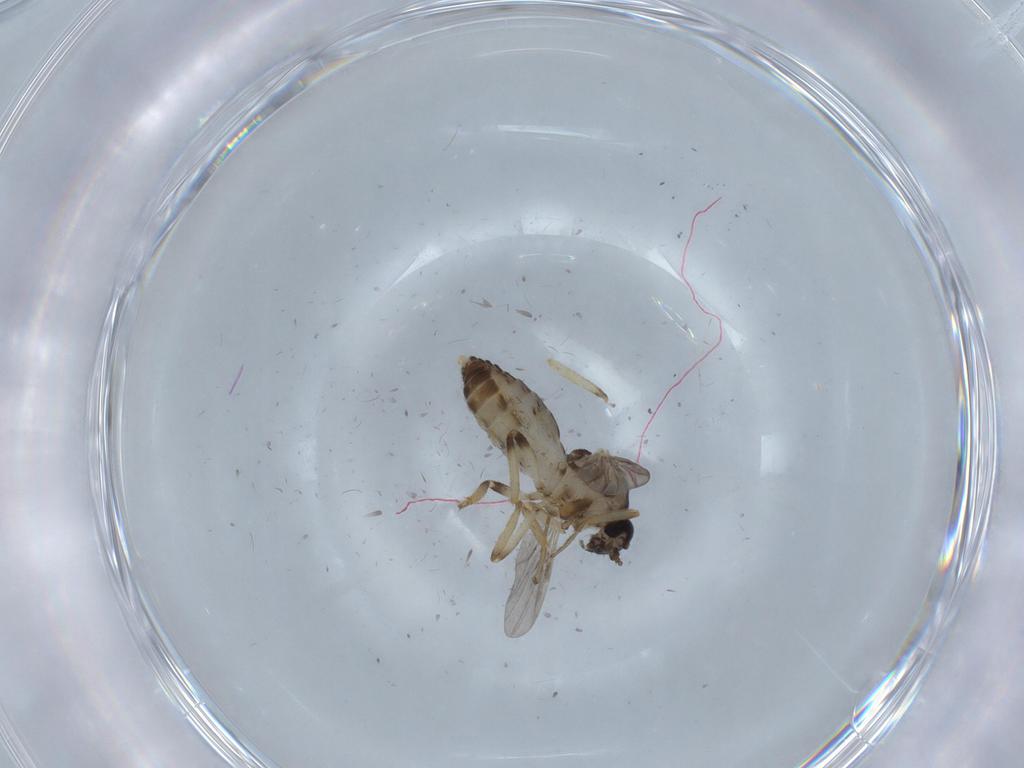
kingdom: Animalia
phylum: Arthropoda
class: Insecta
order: Diptera
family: Ceratopogonidae
